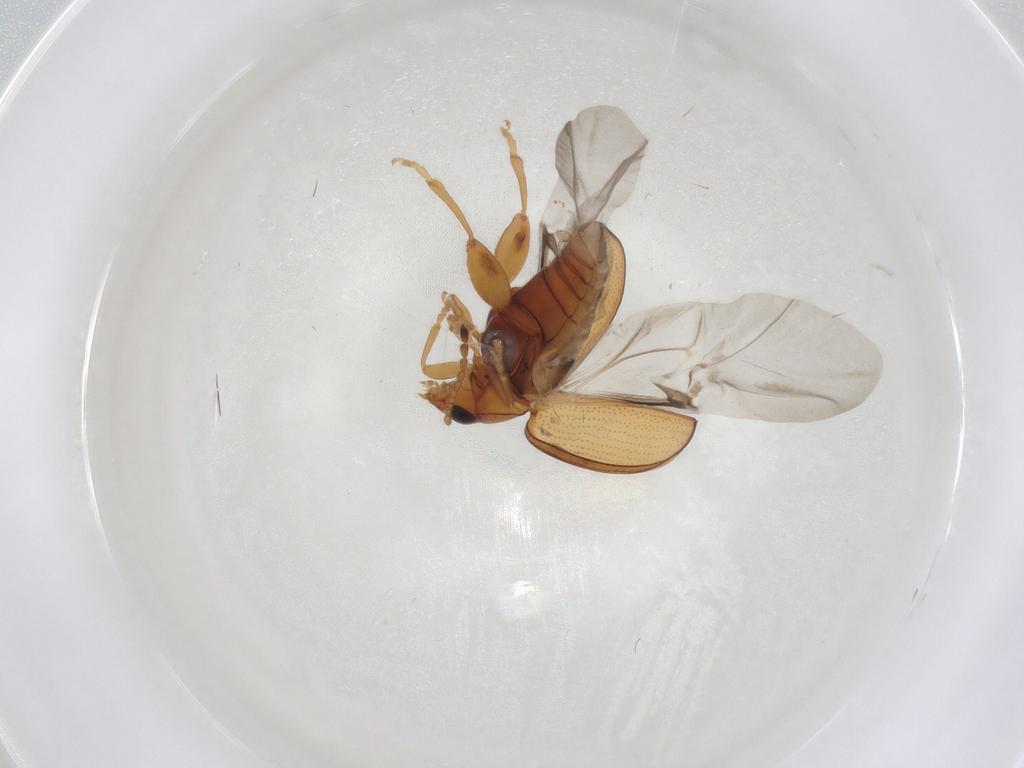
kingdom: Animalia
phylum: Arthropoda
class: Insecta
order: Coleoptera
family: Chrysomelidae
